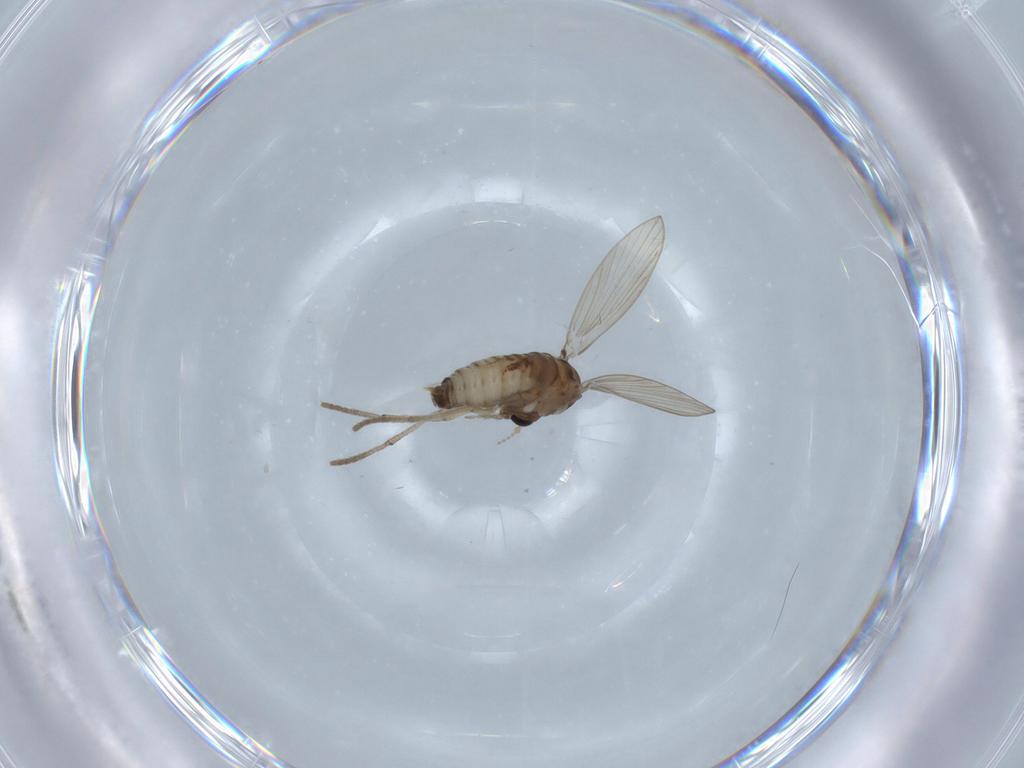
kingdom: Animalia
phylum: Arthropoda
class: Insecta
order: Diptera
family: Psychodidae
